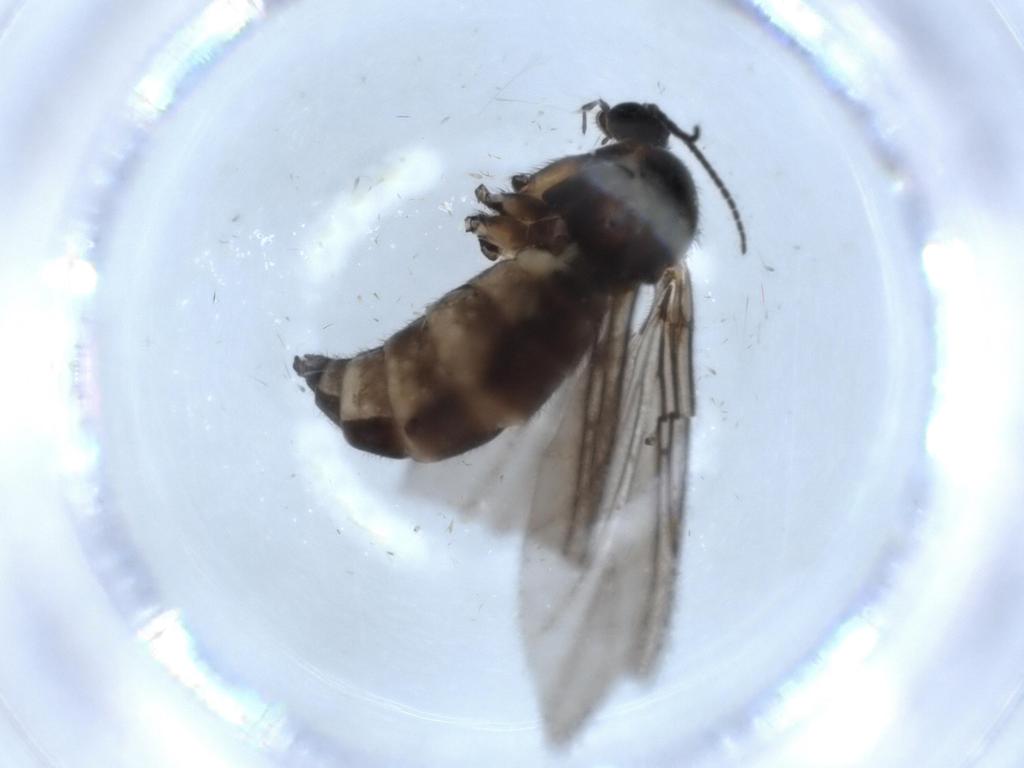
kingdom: Animalia
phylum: Arthropoda
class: Insecta
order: Diptera
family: Sciaridae
